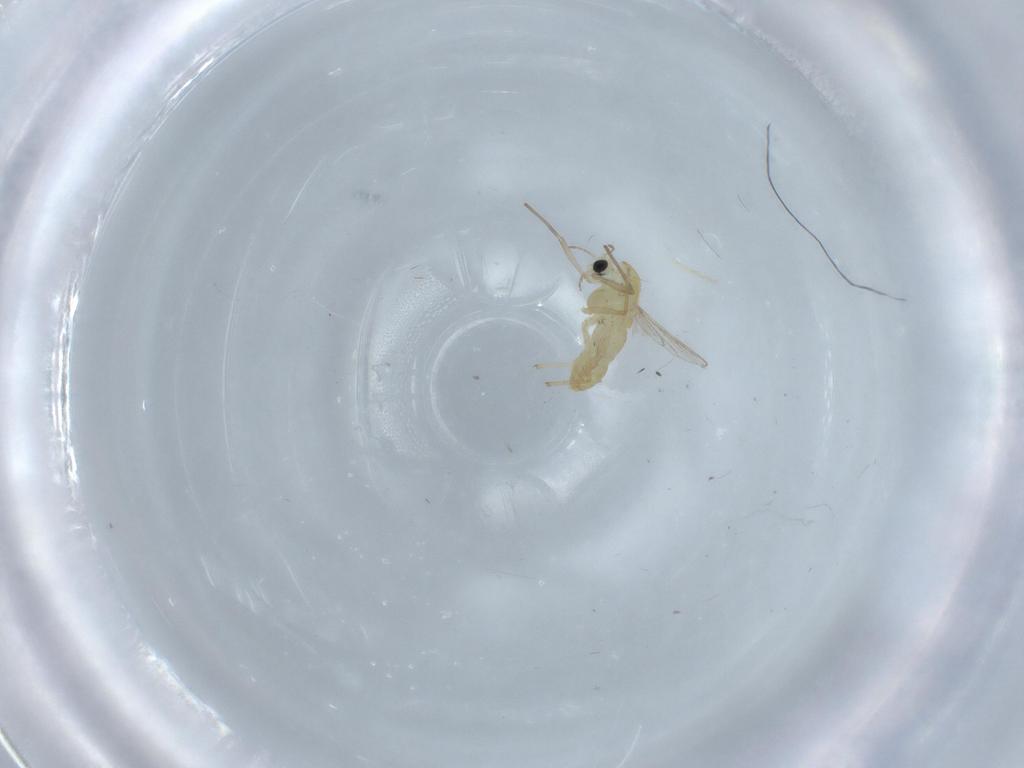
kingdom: Animalia
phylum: Arthropoda
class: Insecta
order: Diptera
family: Chironomidae
